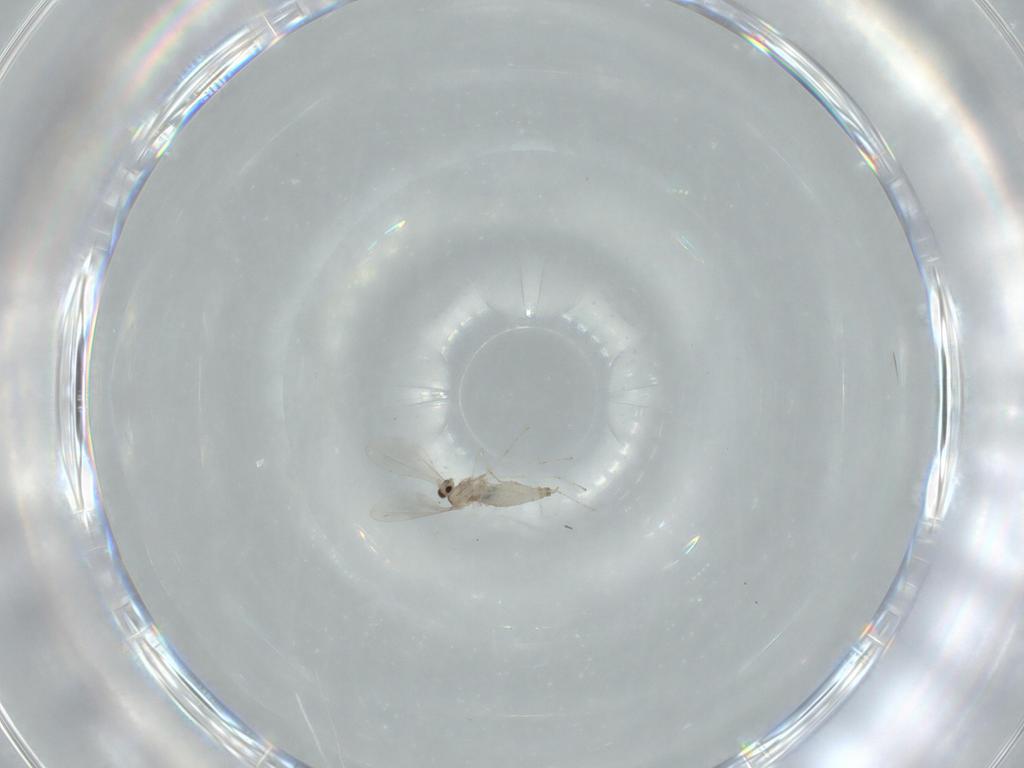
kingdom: Animalia
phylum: Arthropoda
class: Insecta
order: Diptera
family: Cecidomyiidae
